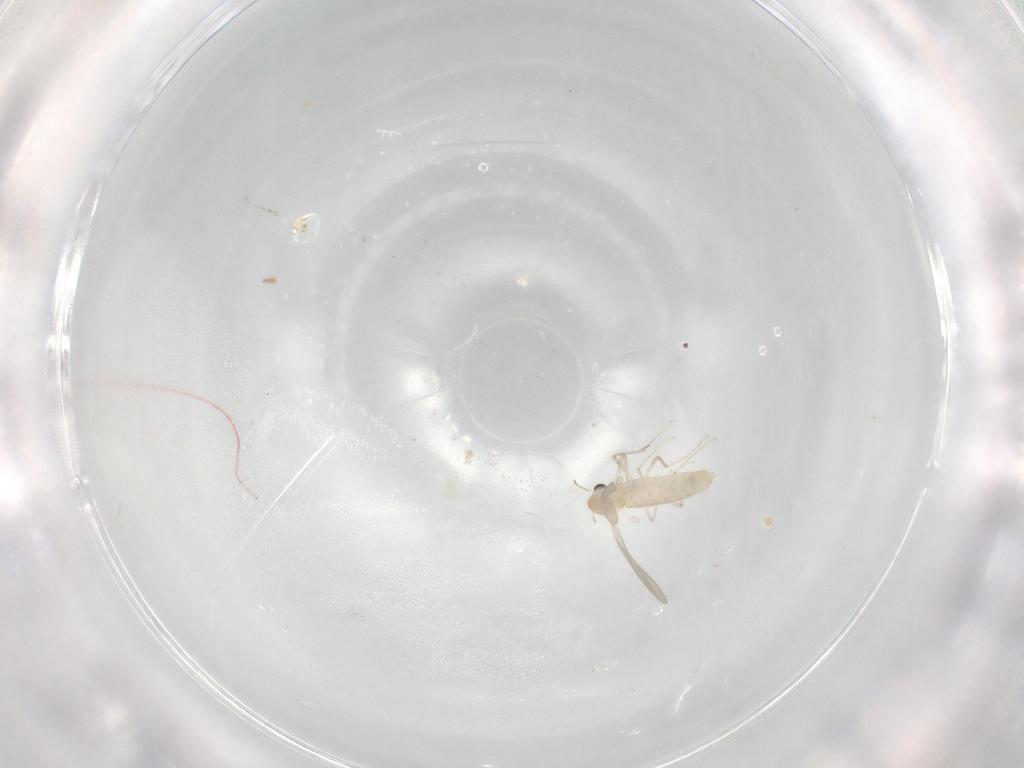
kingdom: Animalia
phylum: Arthropoda
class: Insecta
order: Diptera
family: Chironomidae
